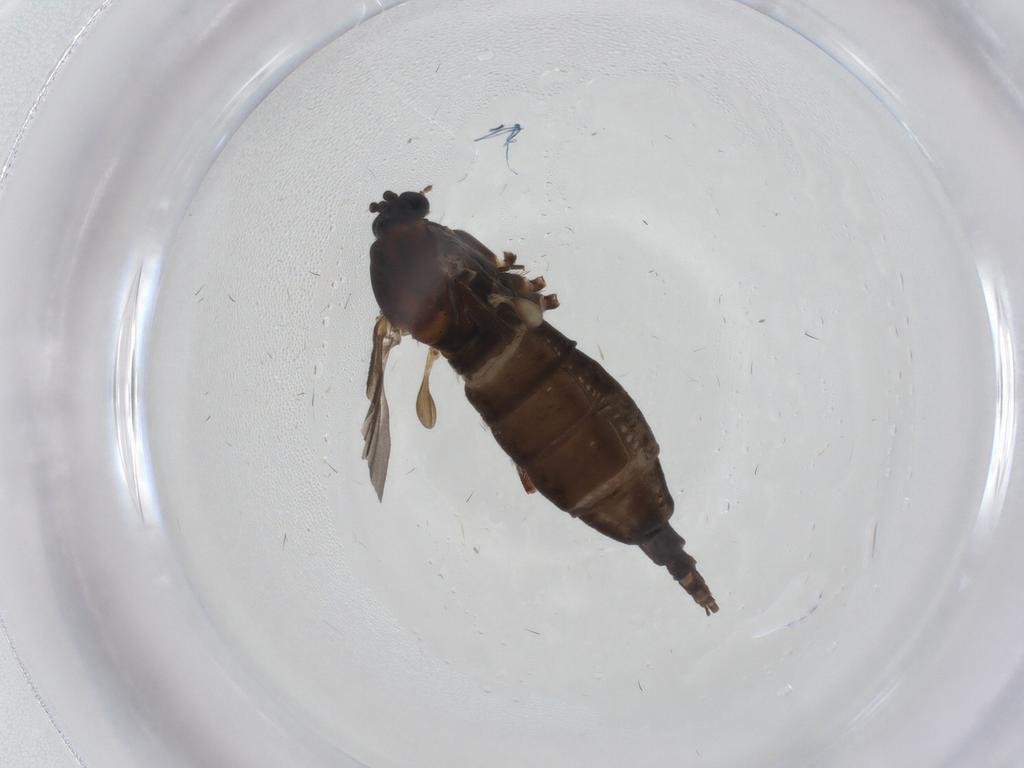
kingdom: Animalia
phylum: Arthropoda
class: Insecta
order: Diptera
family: Sciaridae
